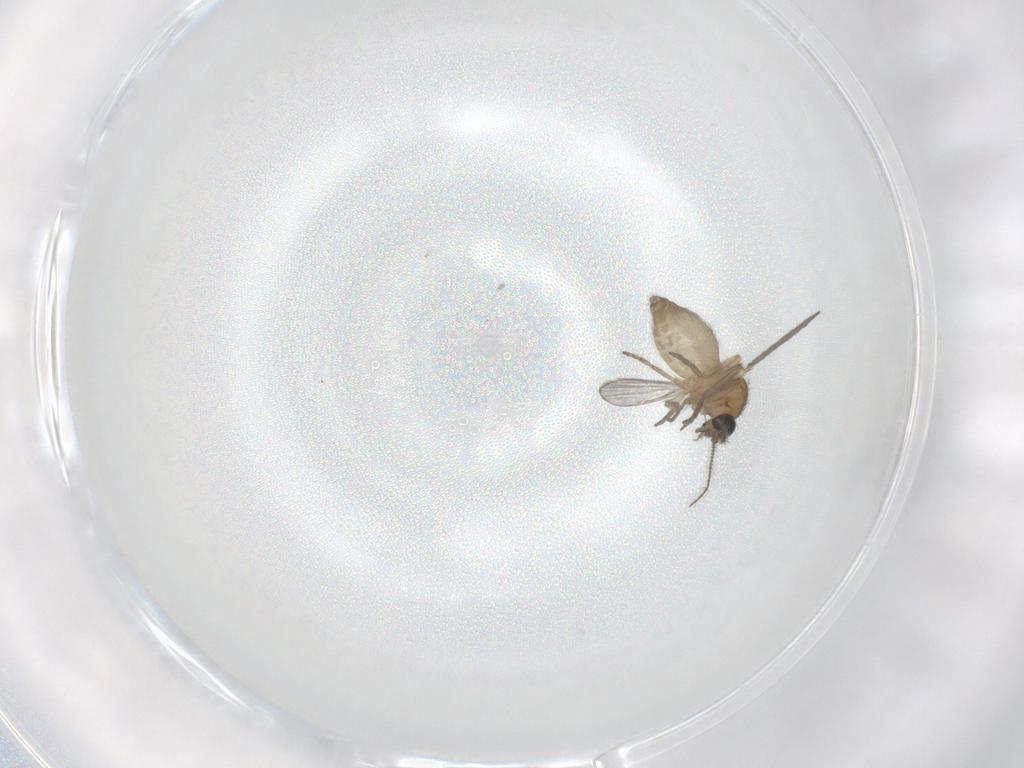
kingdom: Animalia
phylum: Arthropoda
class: Insecta
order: Diptera
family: Ceratopogonidae
